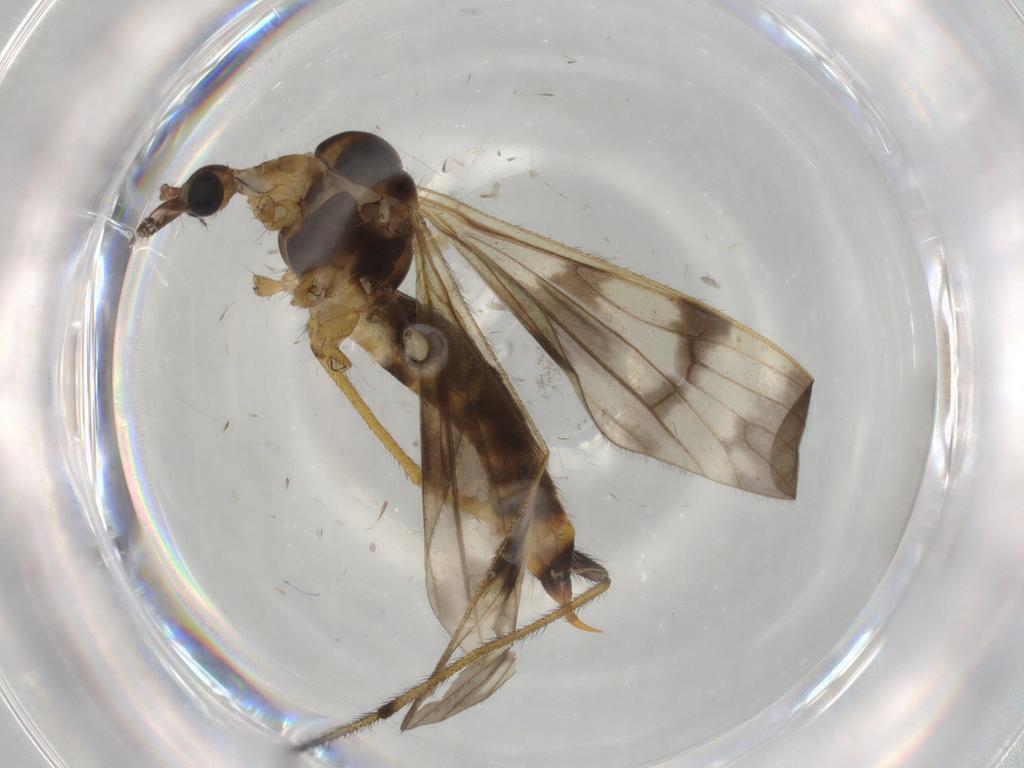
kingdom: Animalia
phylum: Arthropoda
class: Insecta
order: Diptera
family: Limoniidae
